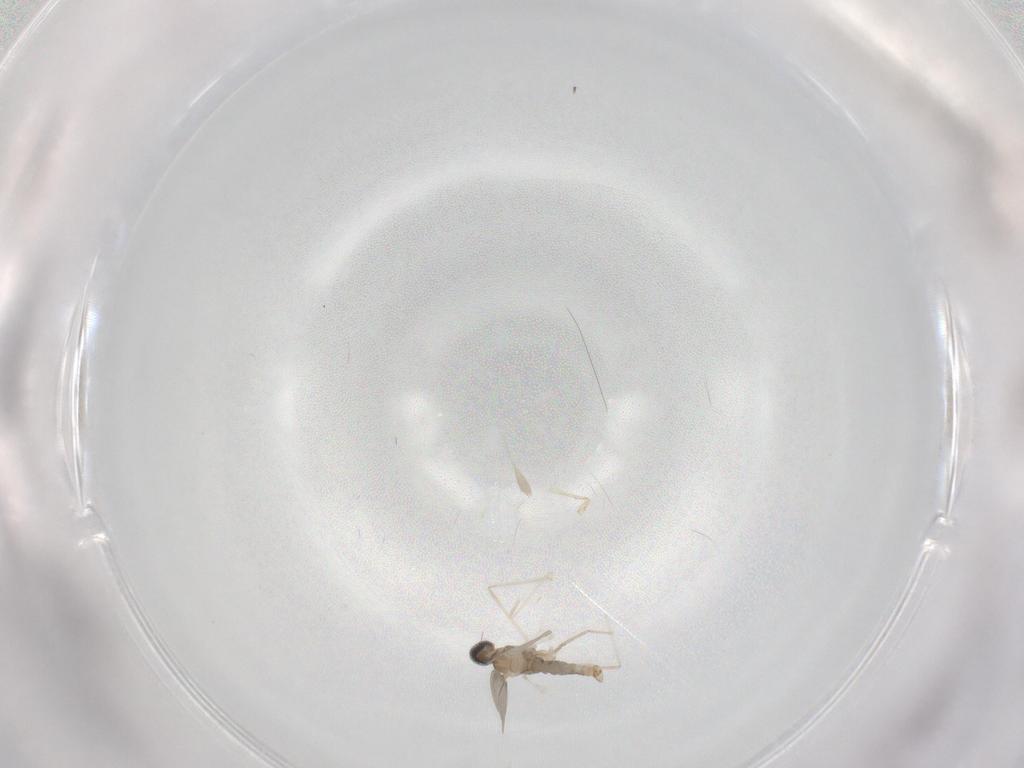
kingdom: Animalia
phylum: Arthropoda
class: Insecta
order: Diptera
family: Cecidomyiidae
